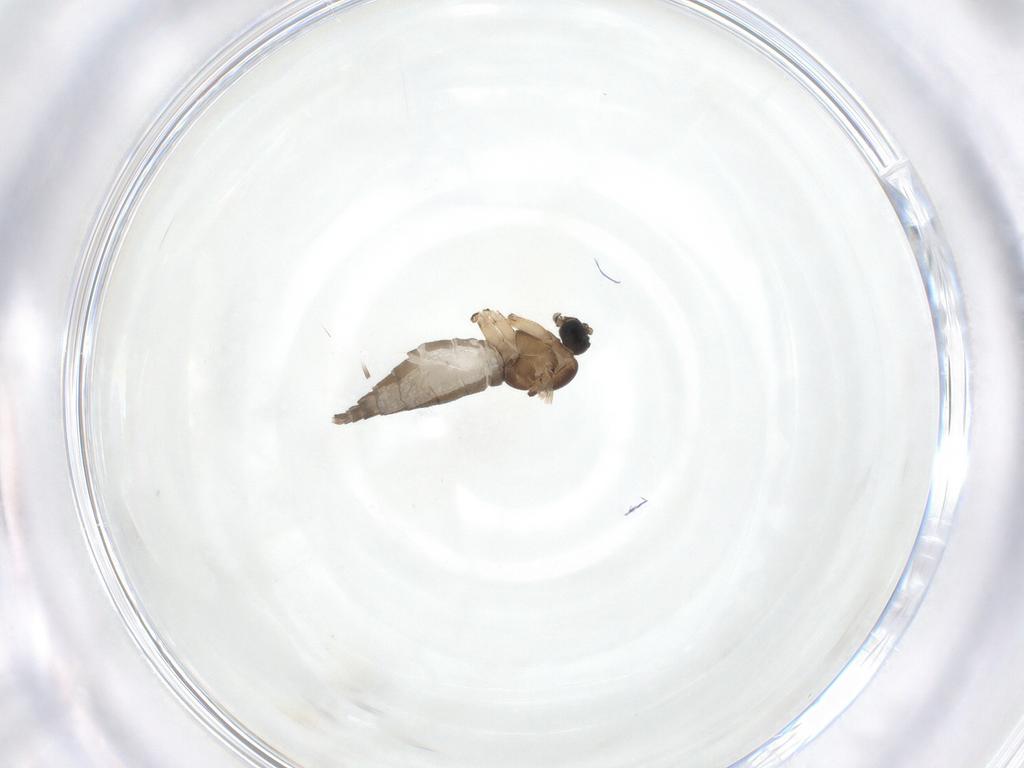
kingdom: Animalia
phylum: Arthropoda
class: Insecta
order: Diptera
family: Sciaridae
